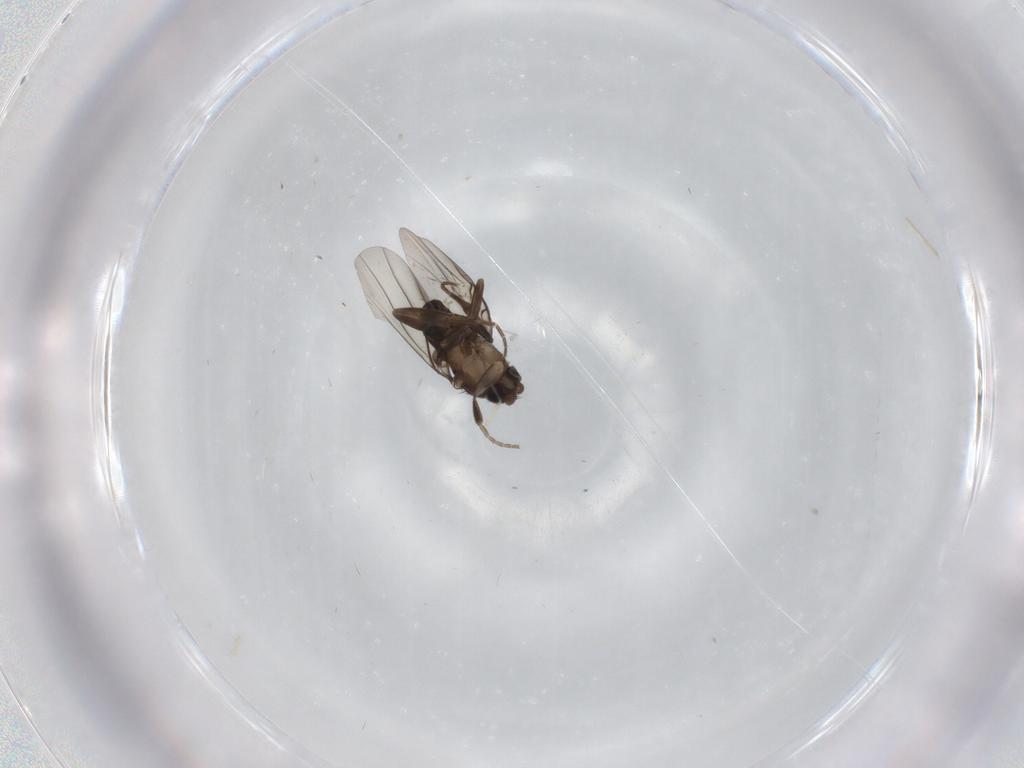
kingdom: Animalia
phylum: Arthropoda
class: Insecta
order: Diptera
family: Phoridae
